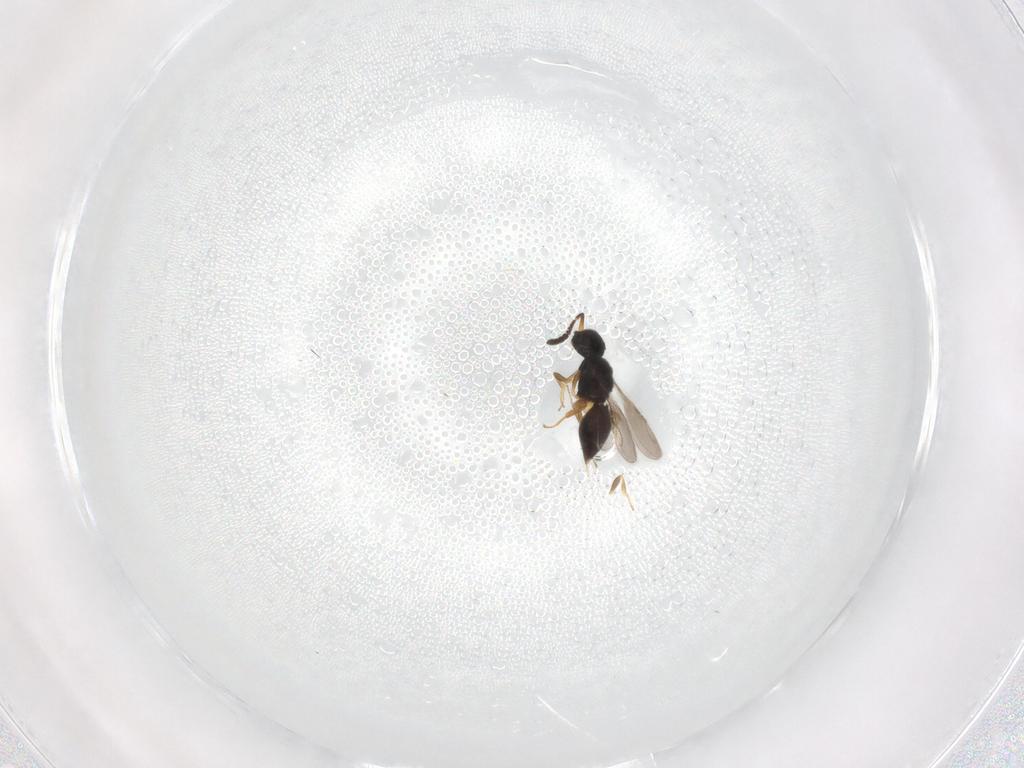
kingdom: Animalia
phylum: Arthropoda
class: Insecta
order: Hymenoptera
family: Ceraphronidae
